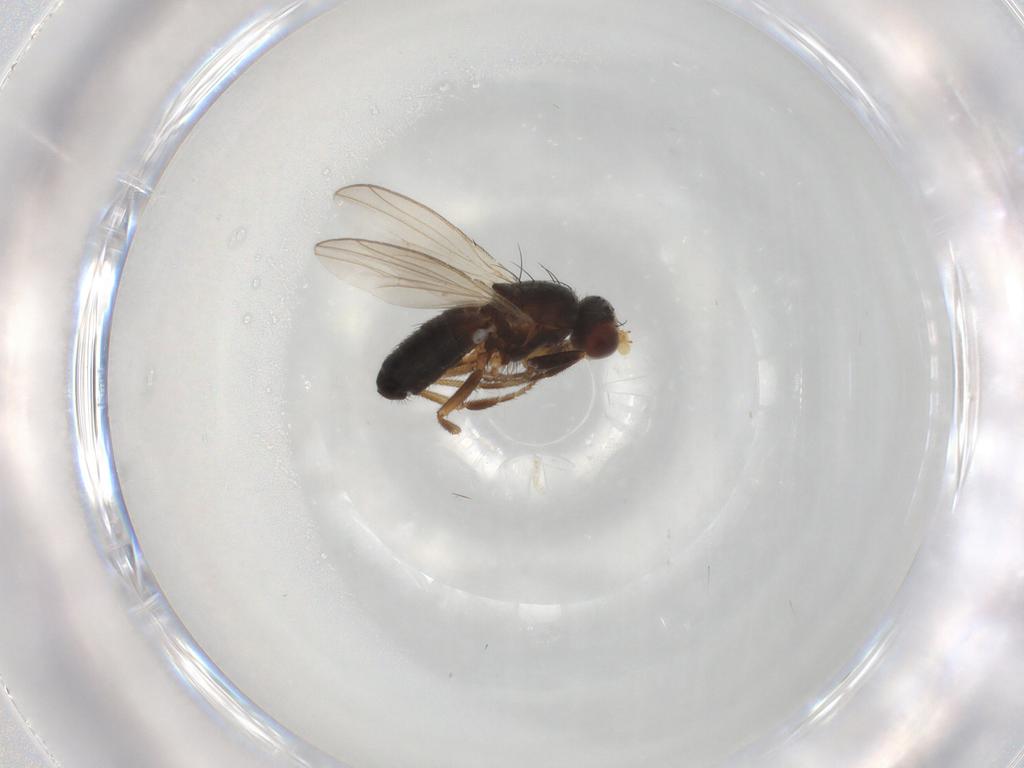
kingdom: Animalia
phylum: Arthropoda
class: Insecta
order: Diptera
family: Heleomyzidae
